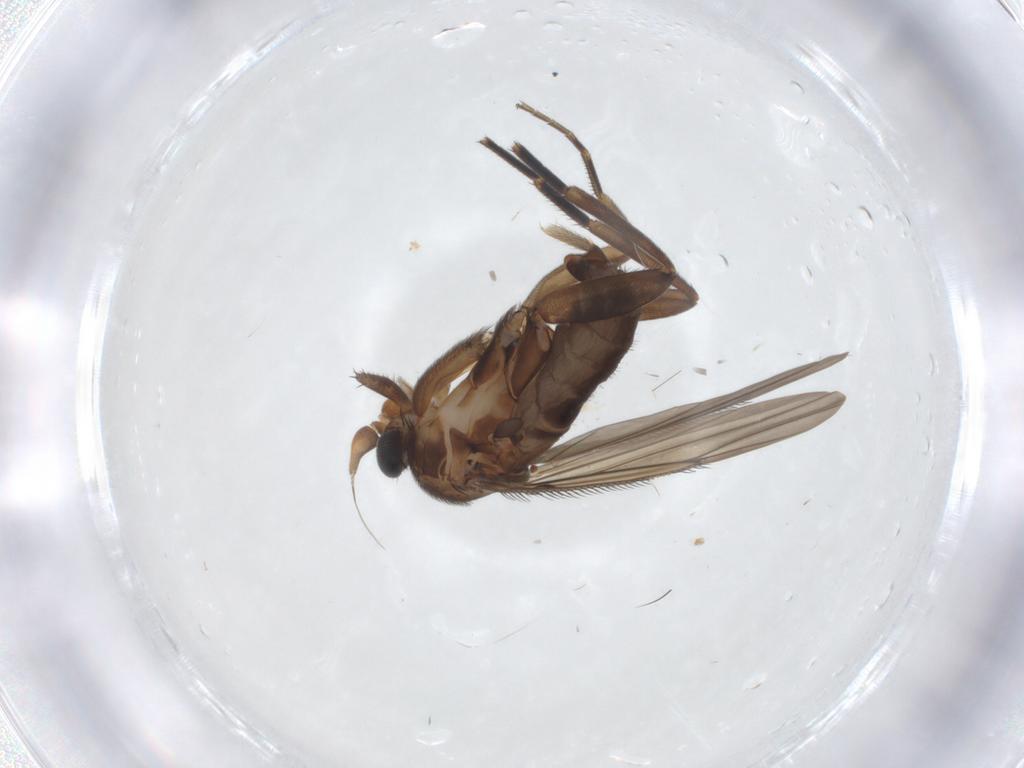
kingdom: Animalia
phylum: Arthropoda
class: Insecta
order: Diptera
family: Phoridae
